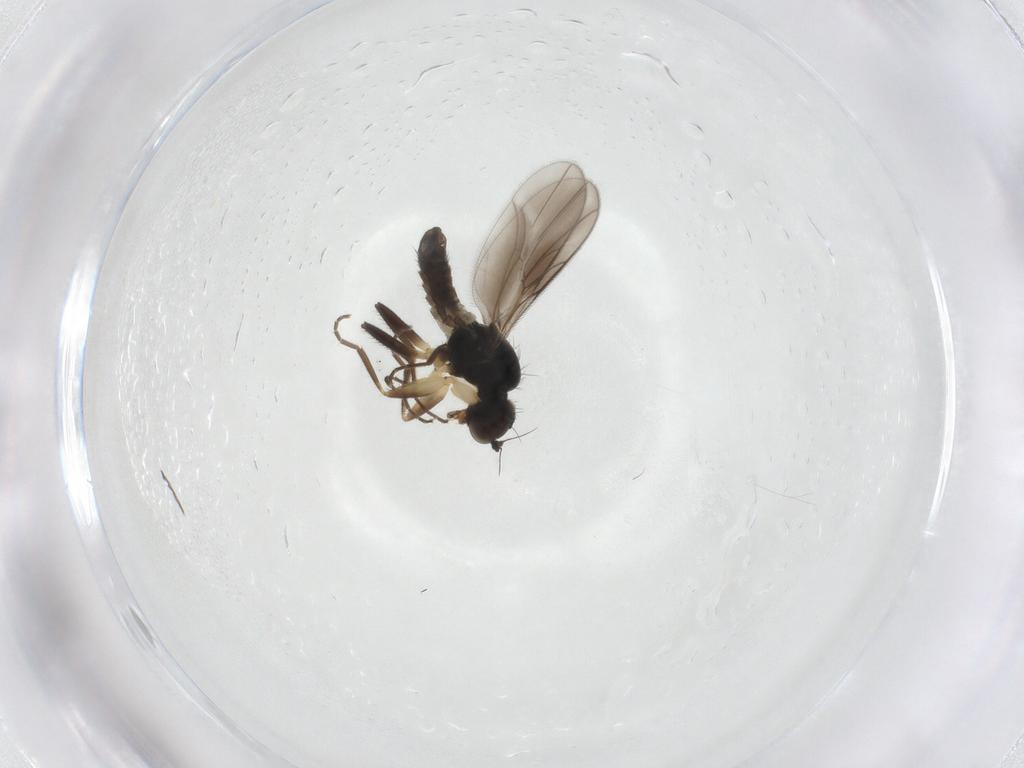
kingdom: Animalia
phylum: Arthropoda
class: Insecta
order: Diptera
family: Hybotidae
